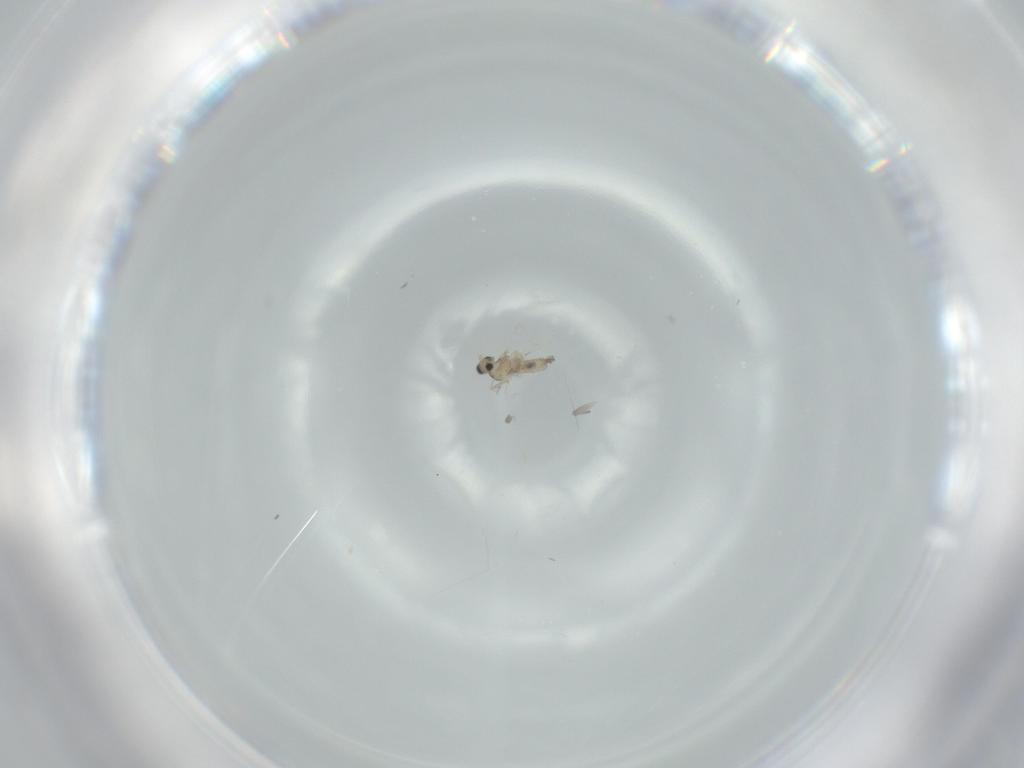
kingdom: Animalia
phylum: Arthropoda
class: Insecta
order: Diptera
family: Cecidomyiidae
